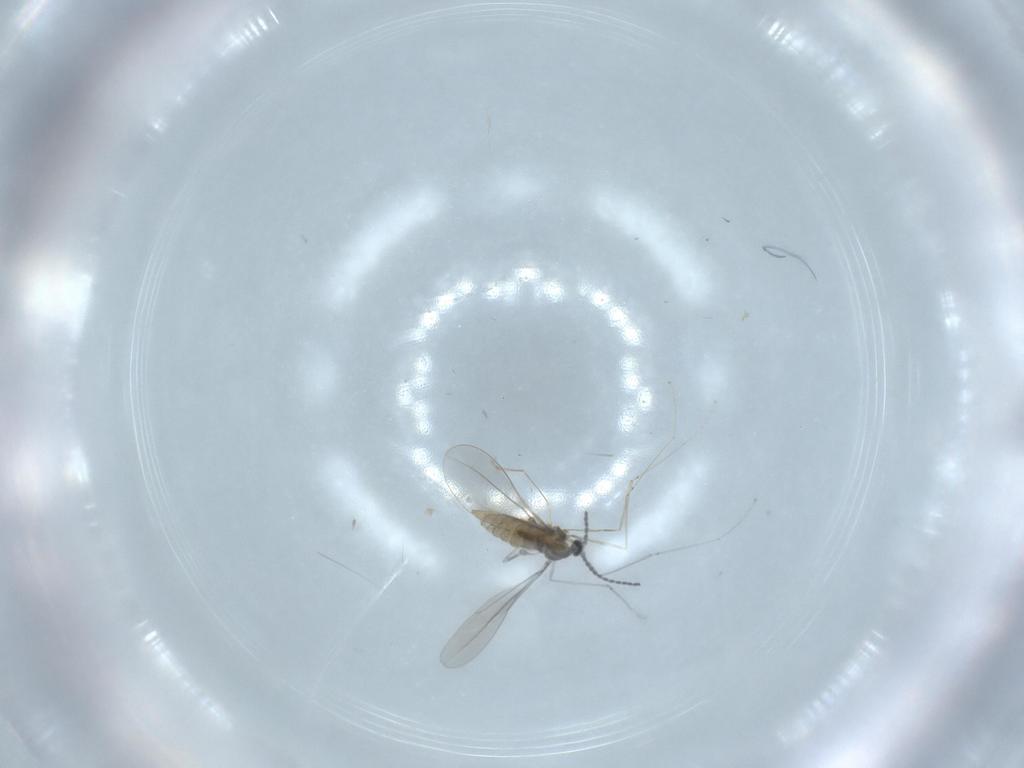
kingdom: Animalia
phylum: Arthropoda
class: Insecta
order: Diptera
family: Cecidomyiidae
